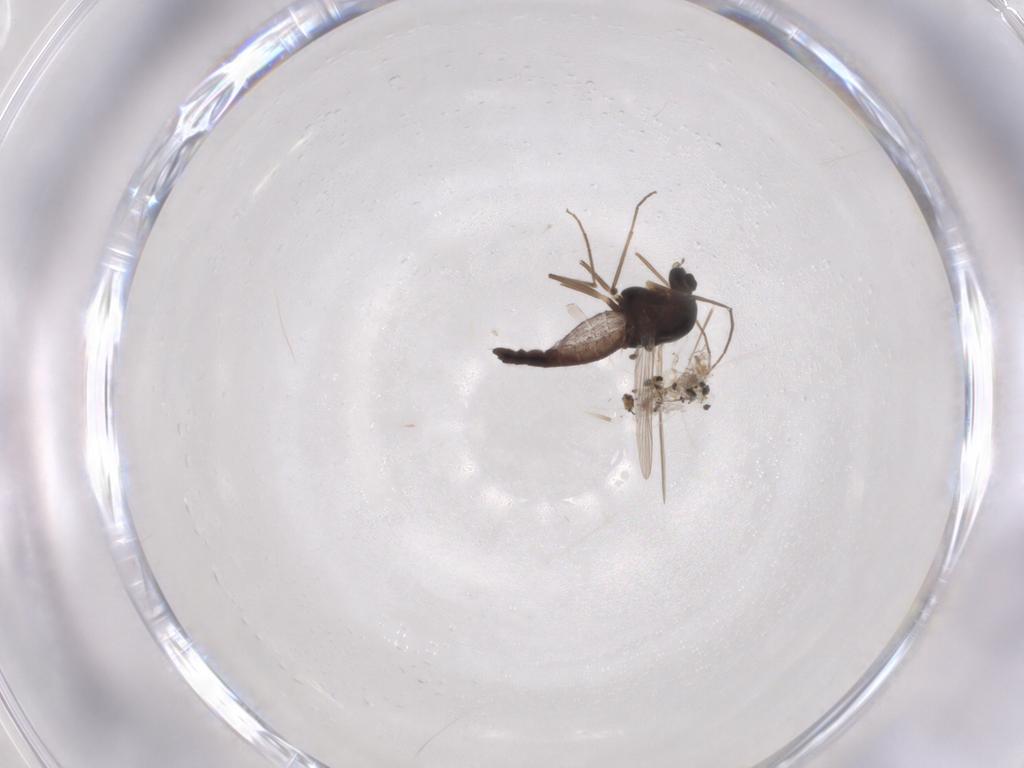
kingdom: Animalia
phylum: Arthropoda
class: Insecta
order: Diptera
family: Chironomidae
